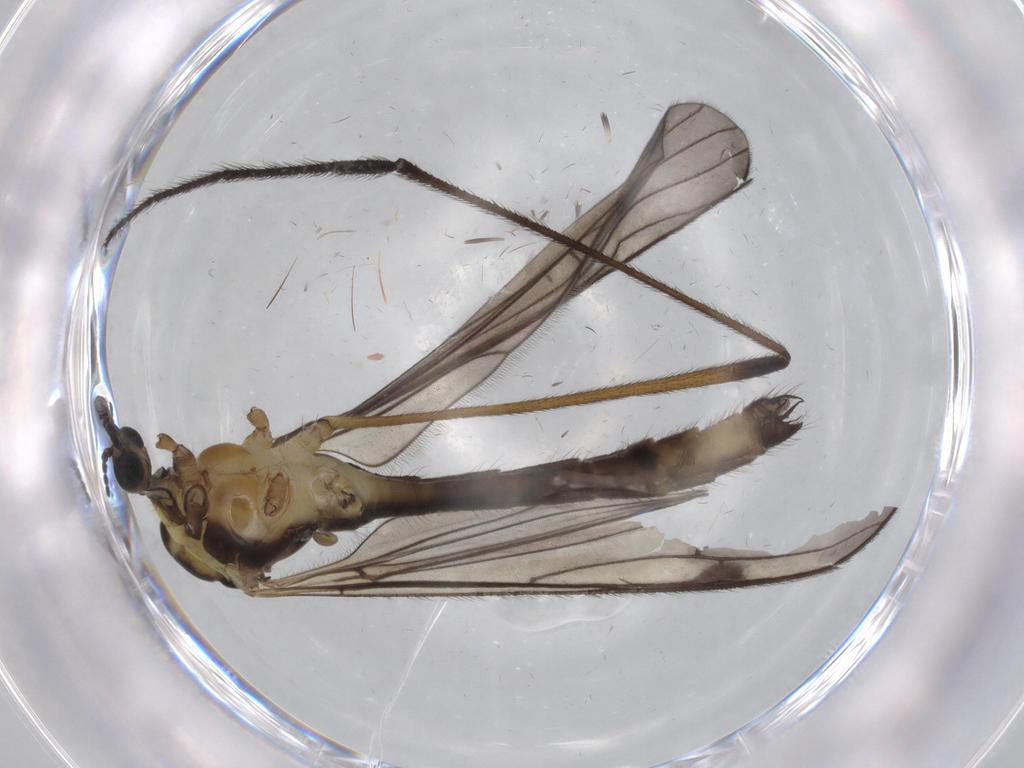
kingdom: Animalia
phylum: Arthropoda
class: Insecta
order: Diptera
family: Limoniidae
